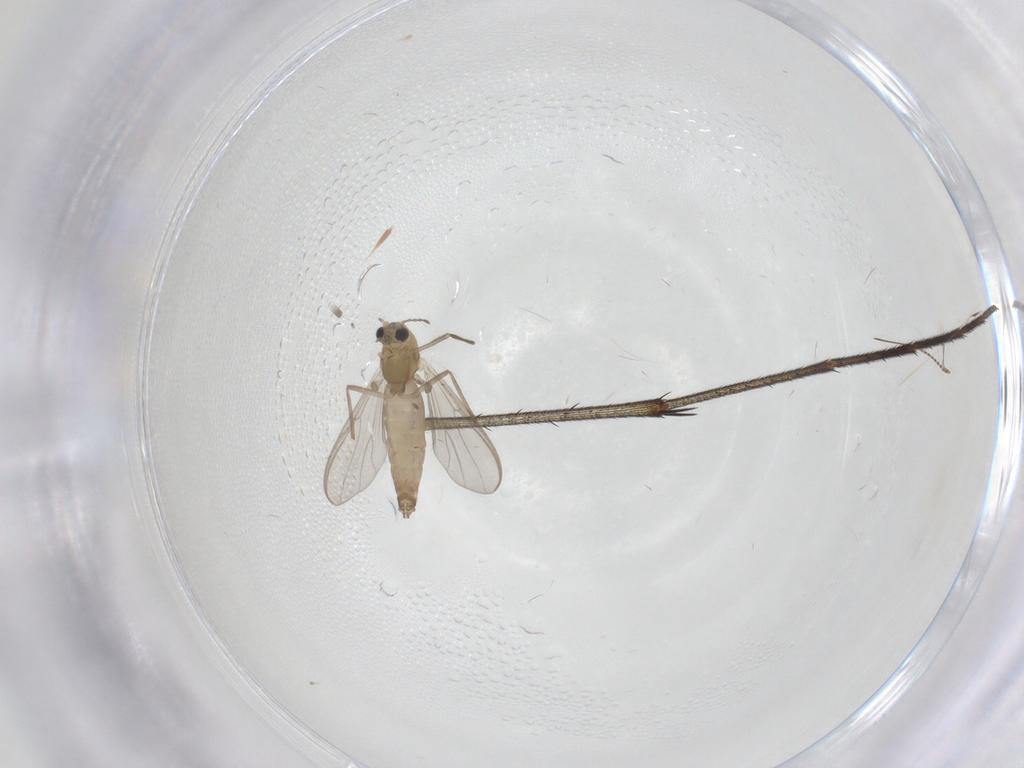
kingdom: Animalia
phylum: Arthropoda
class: Insecta
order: Diptera
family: Chironomidae
